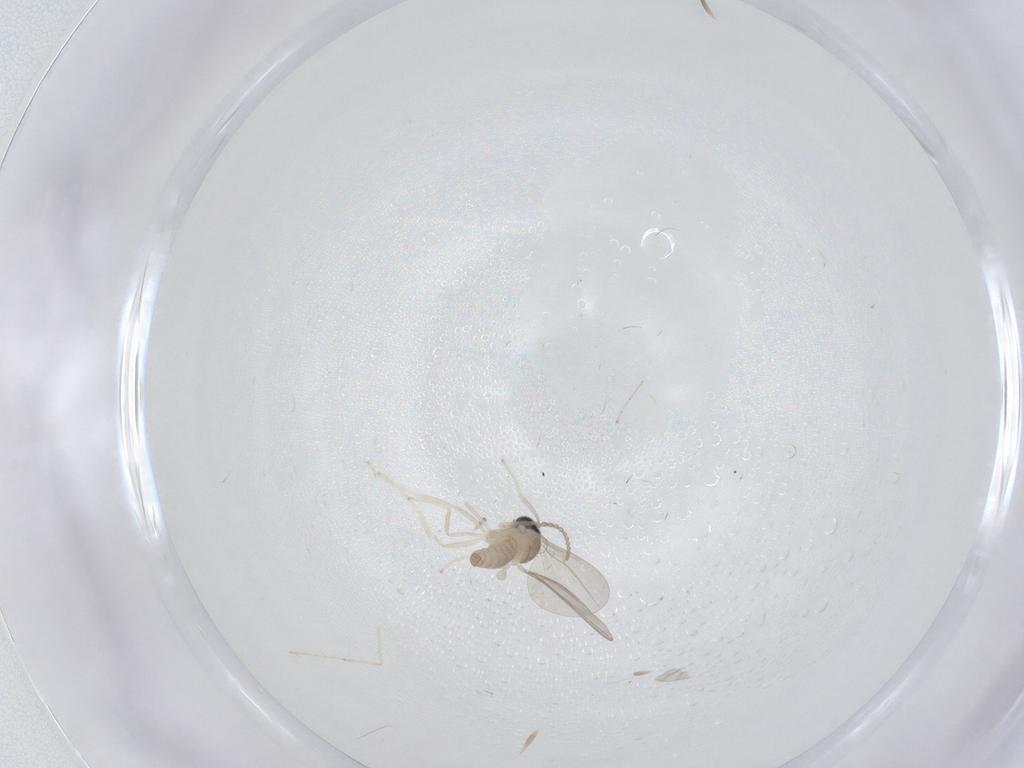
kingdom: Animalia
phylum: Arthropoda
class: Insecta
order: Diptera
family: Cecidomyiidae
